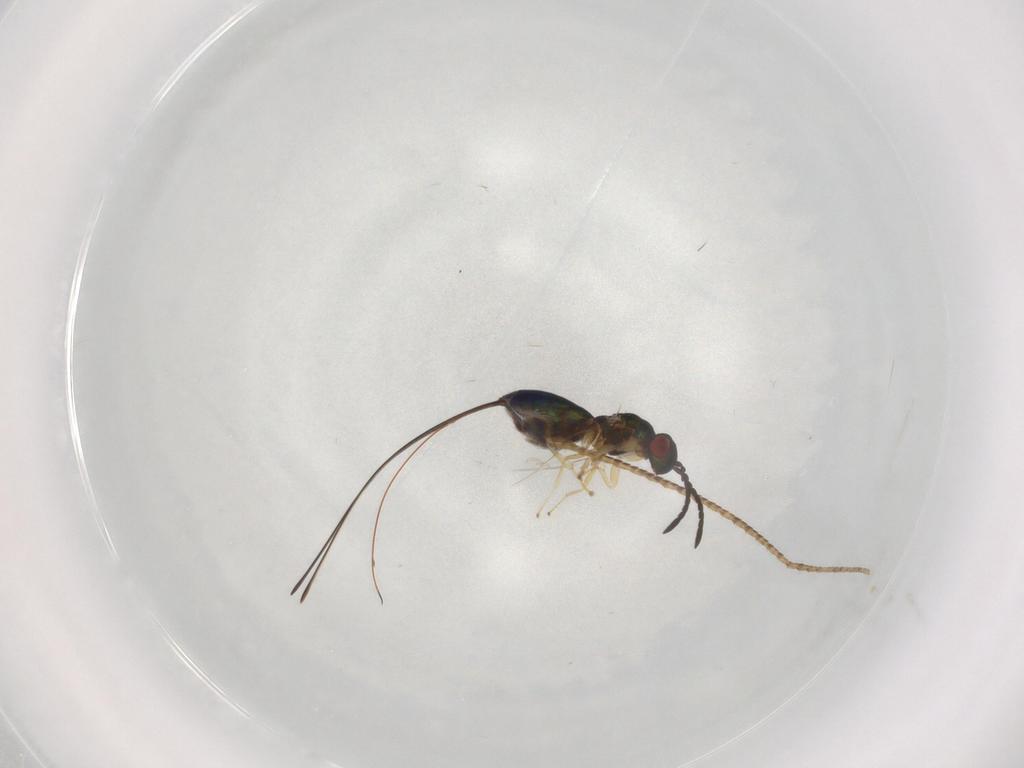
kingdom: Animalia
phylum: Arthropoda
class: Insecta
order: Hymenoptera
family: Pteromalidae
